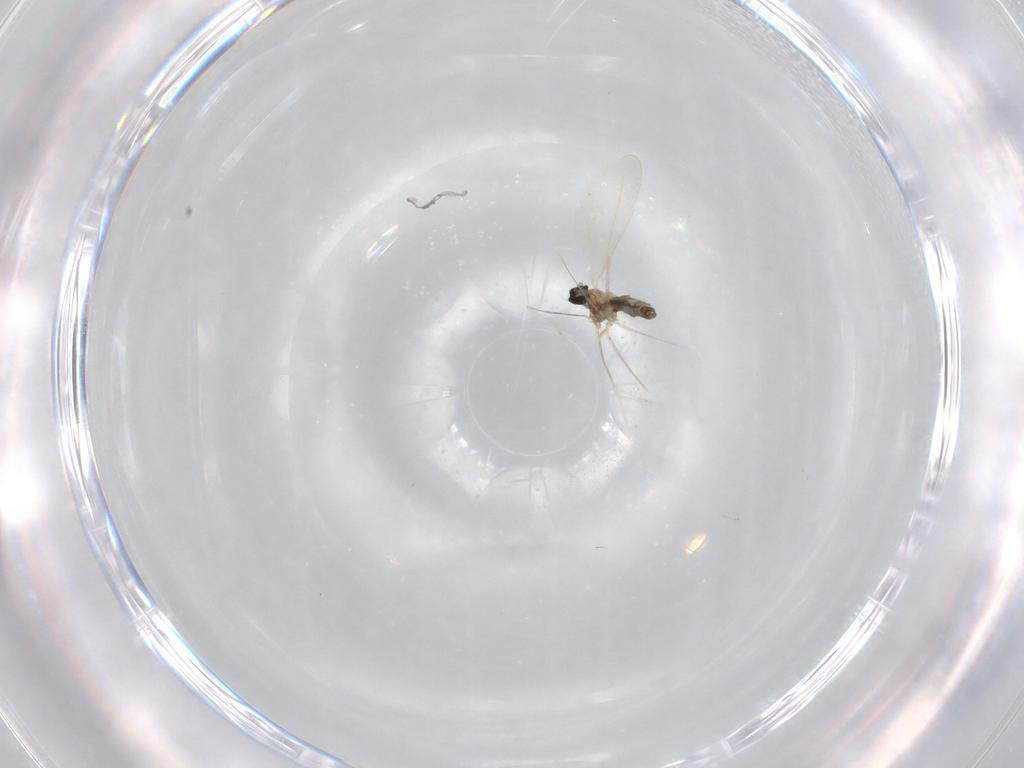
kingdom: Animalia
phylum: Arthropoda
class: Insecta
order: Diptera
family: Cecidomyiidae
